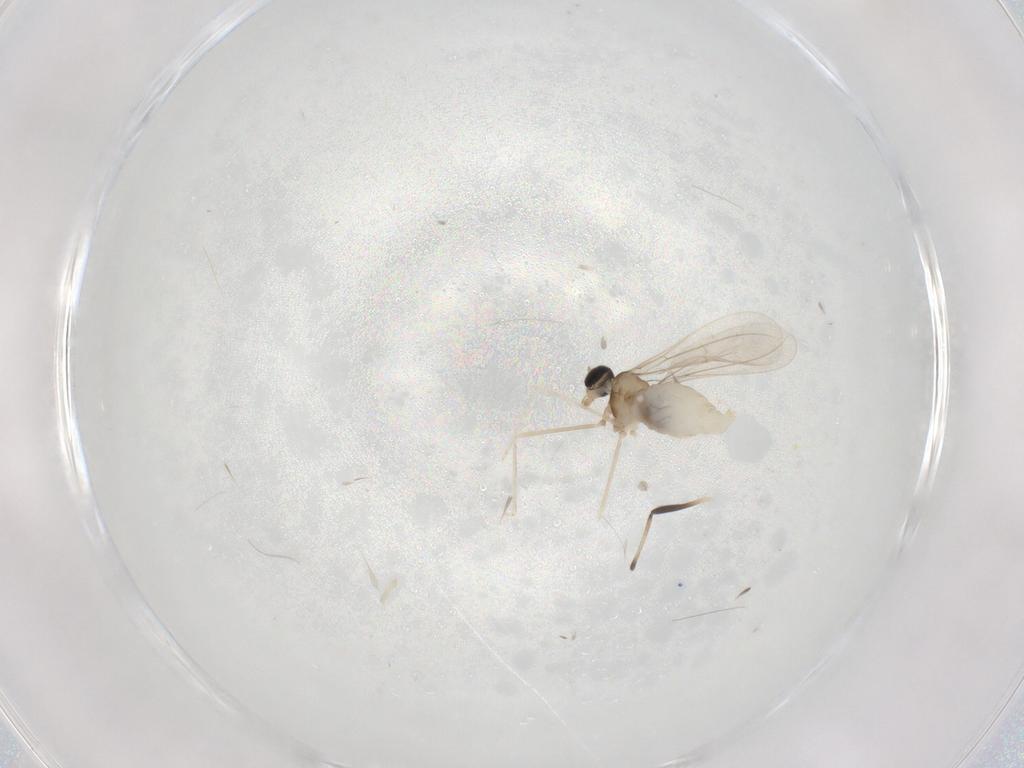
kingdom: Animalia
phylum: Arthropoda
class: Insecta
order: Diptera
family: Cecidomyiidae
